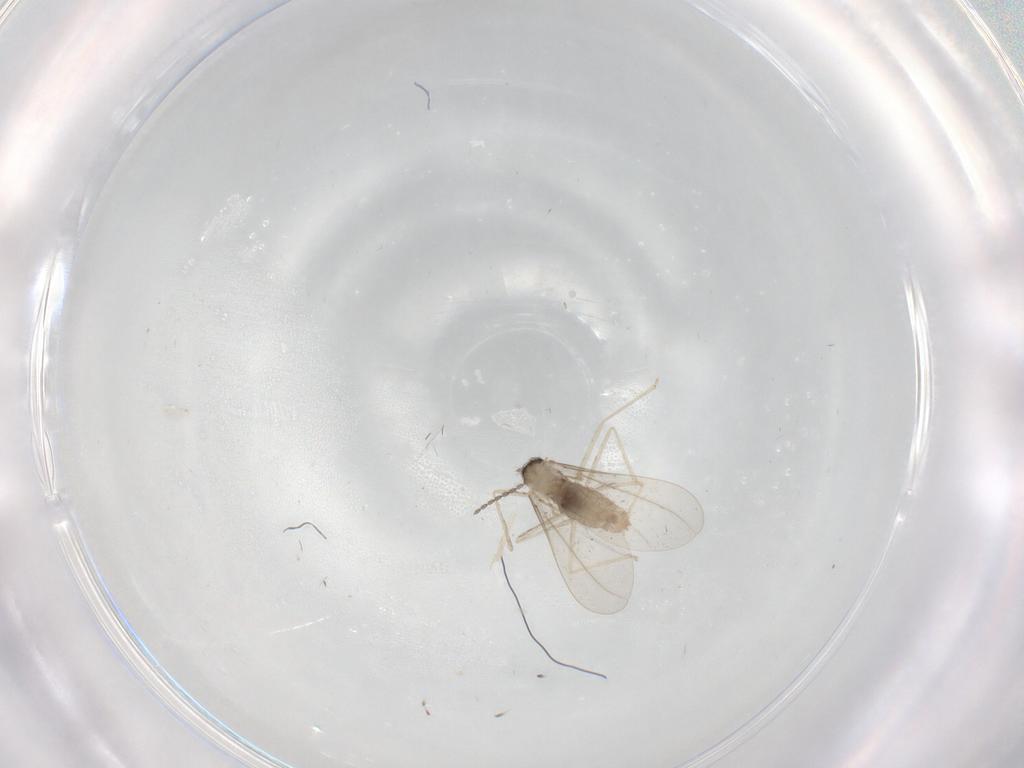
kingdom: Animalia
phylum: Arthropoda
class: Insecta
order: Diptera
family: Cecidomyiidae
